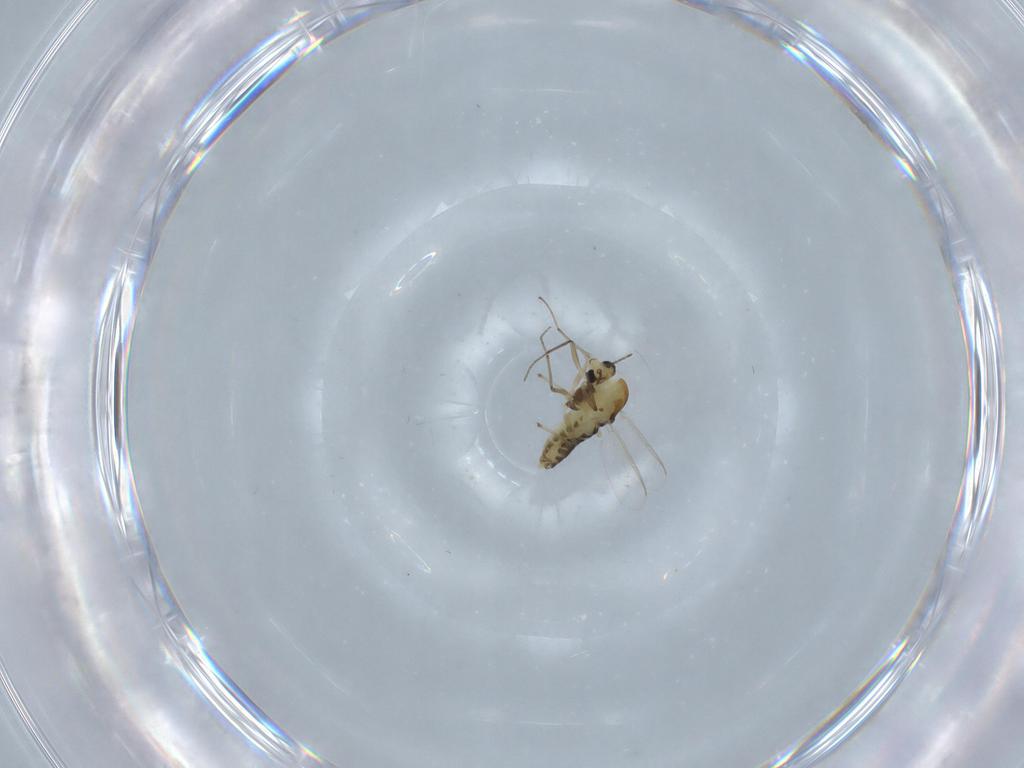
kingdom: Animalia
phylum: Arthropoda
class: Insecta
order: Diptera
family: Chironomidae
